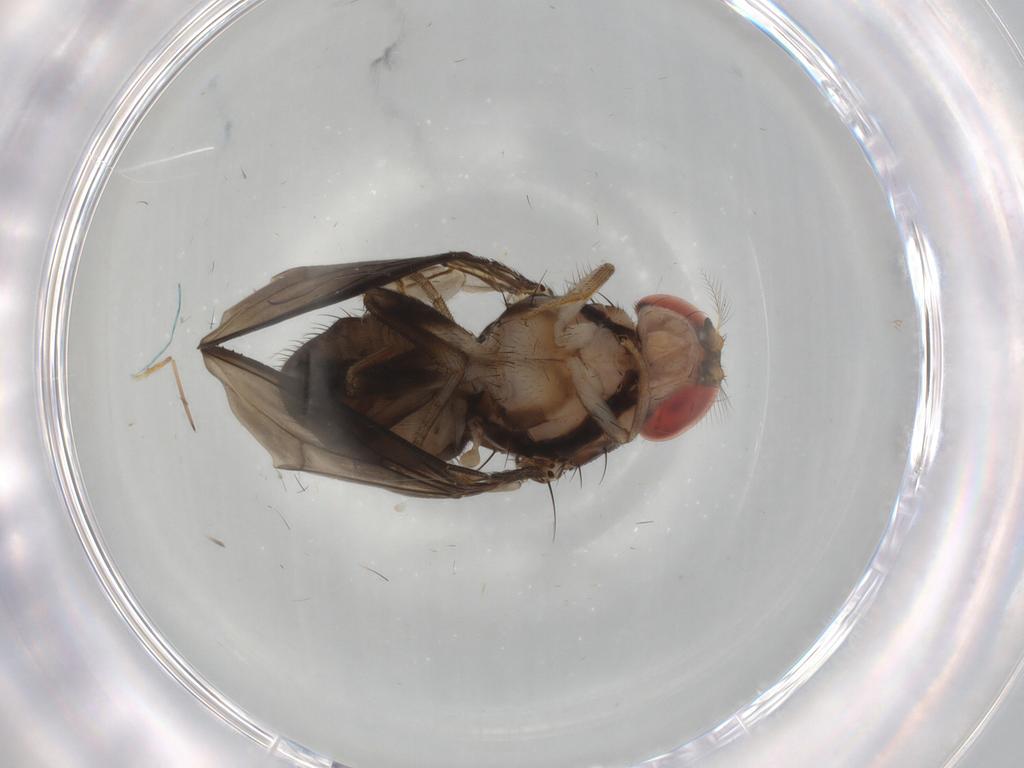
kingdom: Animalia
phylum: Arthropoda
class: Insecta
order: Diptera
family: Drosophilidae
